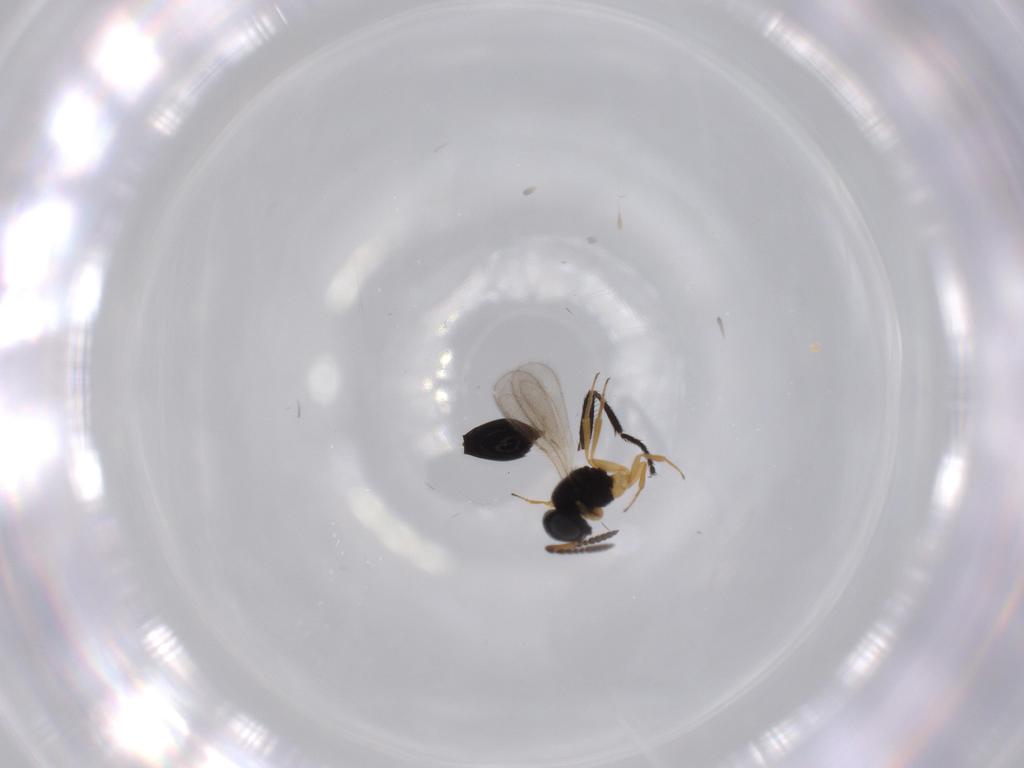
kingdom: Animalia
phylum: Arthropoda
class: Insecta
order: Hymenoptera
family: Scelionidae
